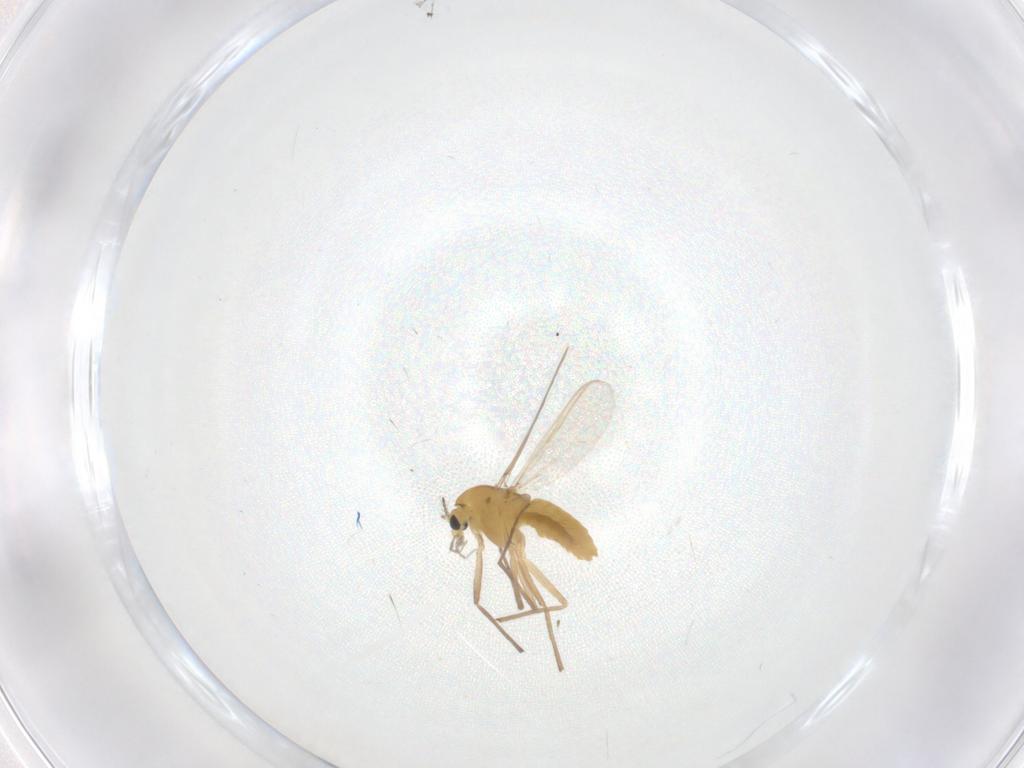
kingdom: Animalia
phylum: Arthropoda
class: Insecta
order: Diptera
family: Chironomidae
